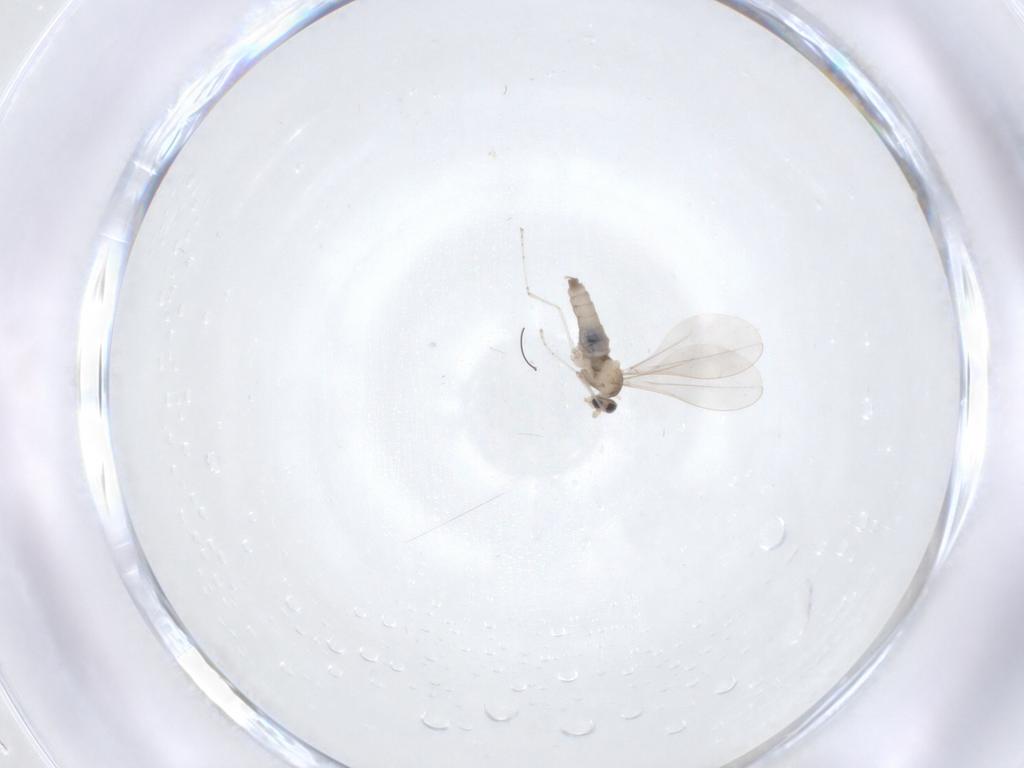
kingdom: Animalia
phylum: Arthropoda
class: Insecta
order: Diptera
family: Cecidomyiidae
